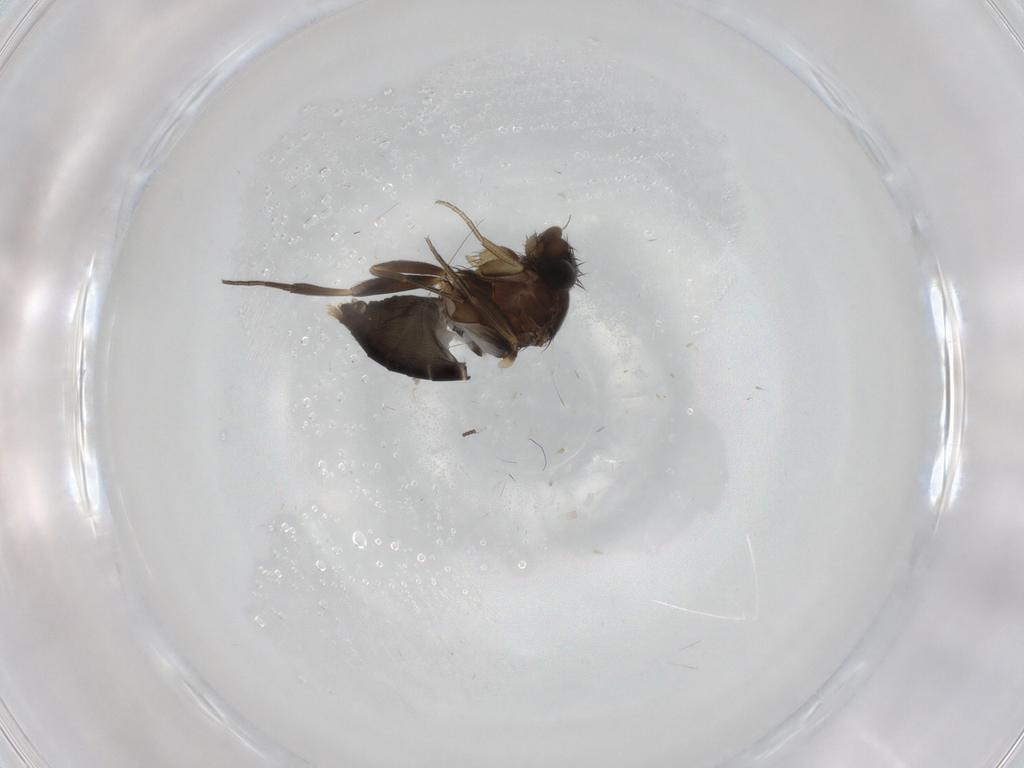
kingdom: Animalia
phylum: Arthropoda
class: Insecta
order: Diptera
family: Phoridae
